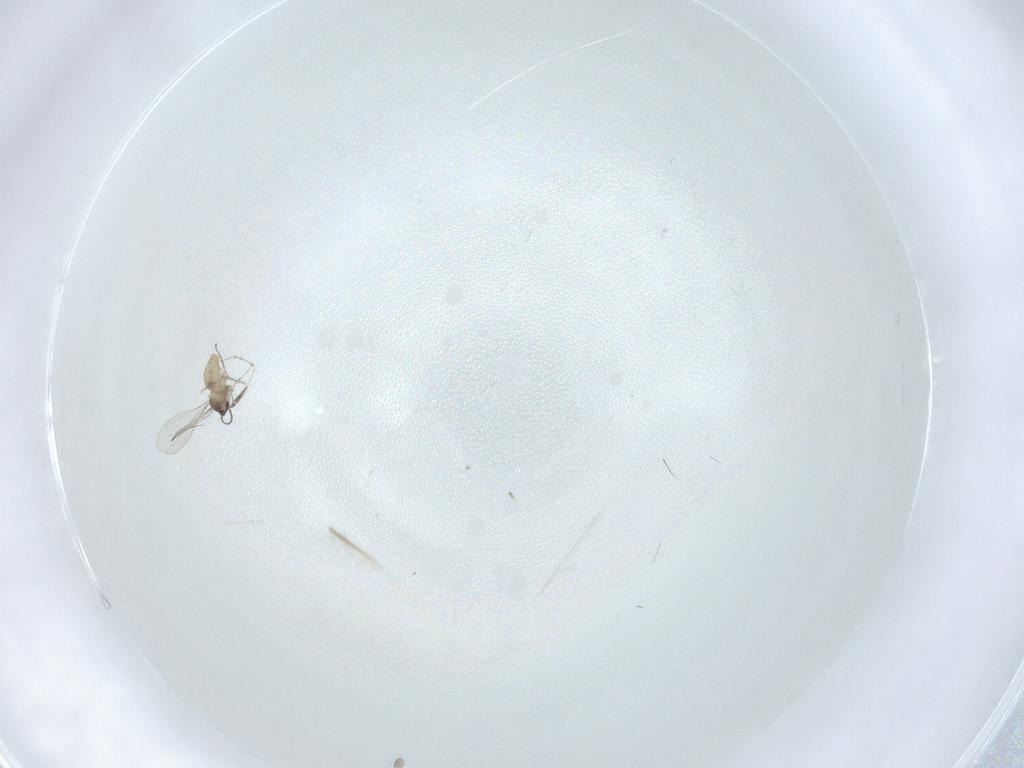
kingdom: Animalia
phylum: Arthropoda
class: Insecta
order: Diptera
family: Cecidomyiidae
